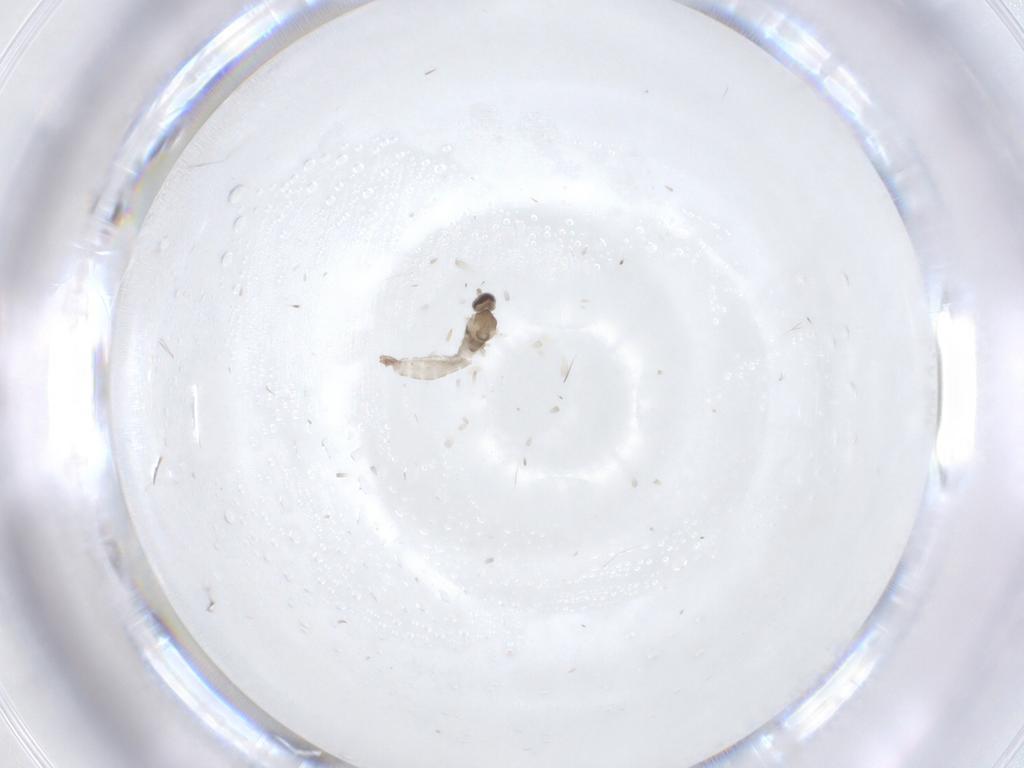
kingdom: Animalia
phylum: Arthropoda
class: Insecta
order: Diptera
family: Cecidomyiidae
